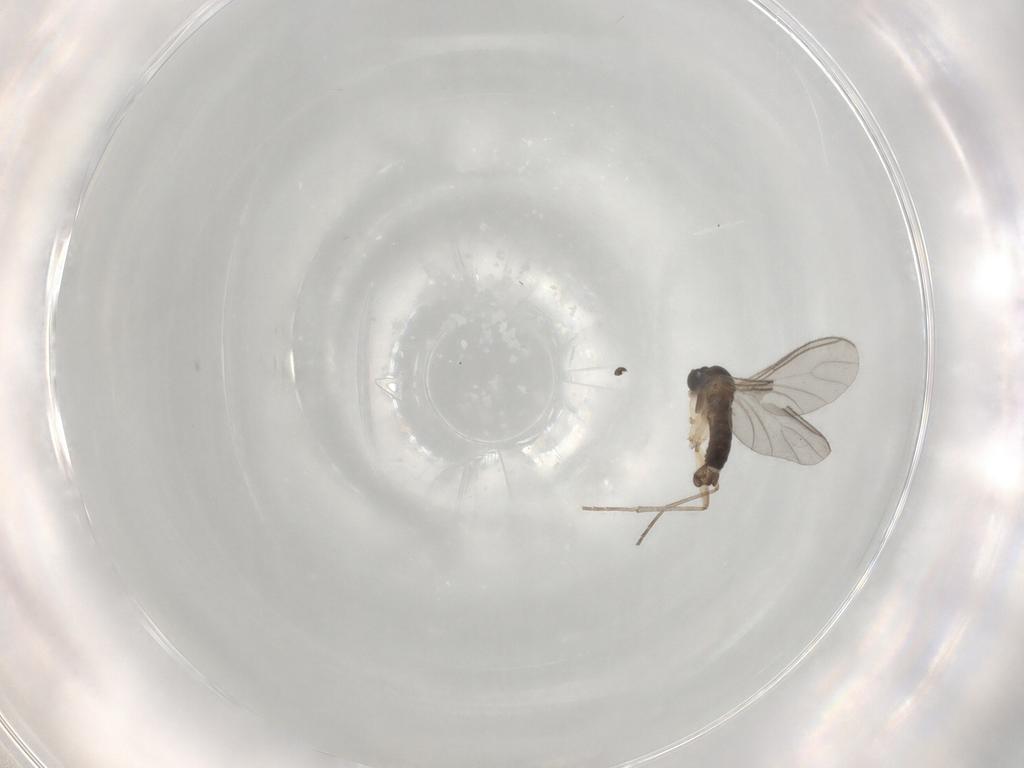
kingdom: Animalia
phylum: Arthropoda
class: Insecta
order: Diptera
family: Sciaridae
